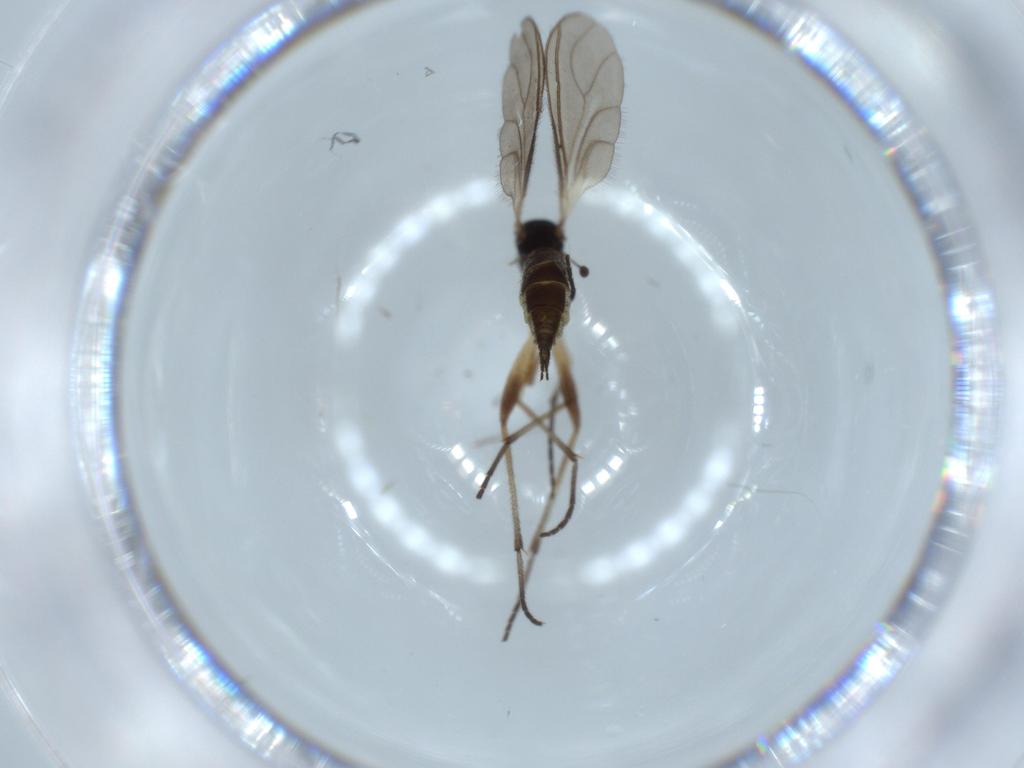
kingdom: Animalia
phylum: Arthropoda
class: Insecta
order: Diptera
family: Sciaridae
